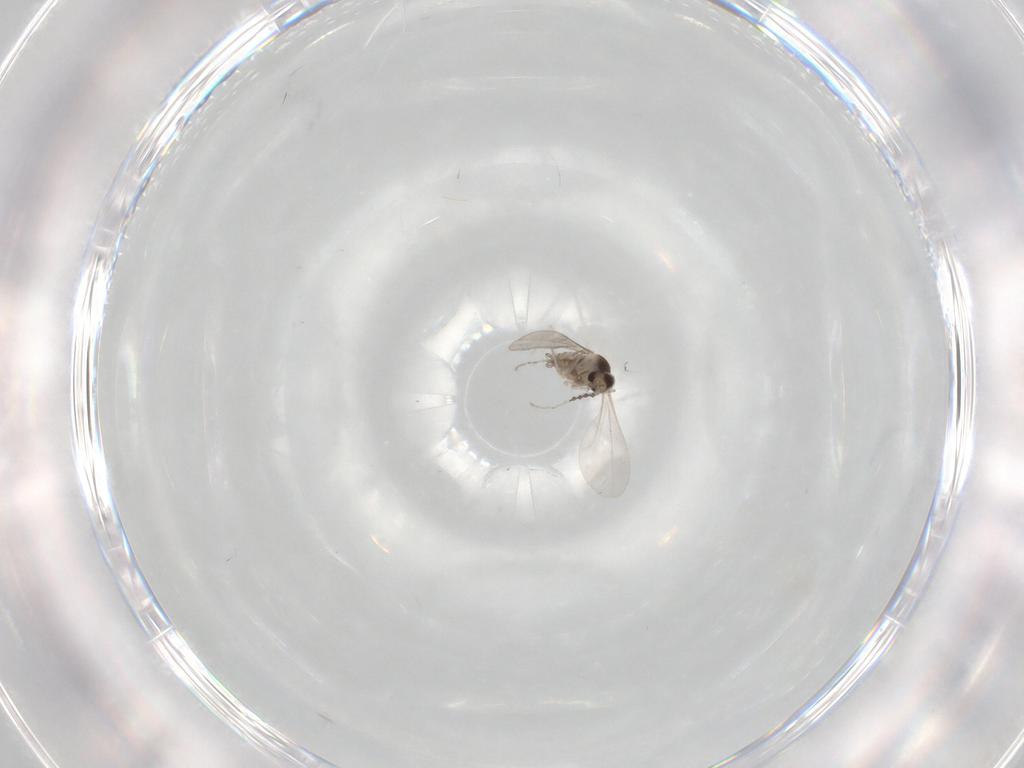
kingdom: Animalia
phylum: Arthropoda
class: Insecta
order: Diptera
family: Cecidomyiidae
